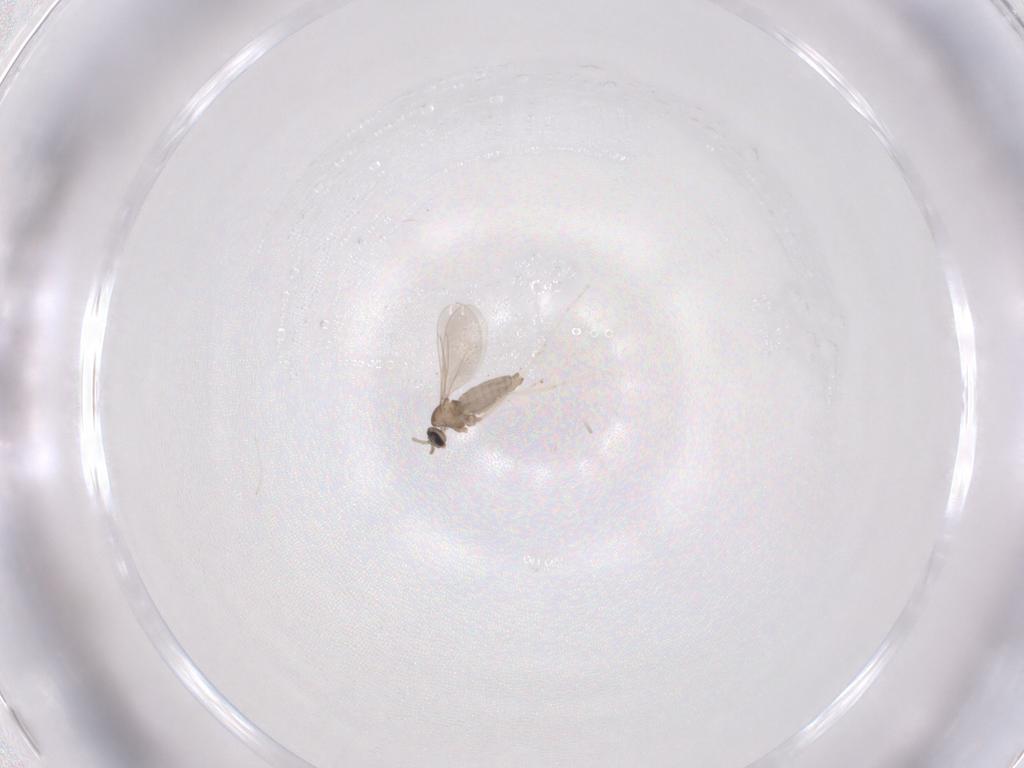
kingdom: Animalia
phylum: Arthropoda
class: Insecta
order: Diptera
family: Cecidomyiidae
